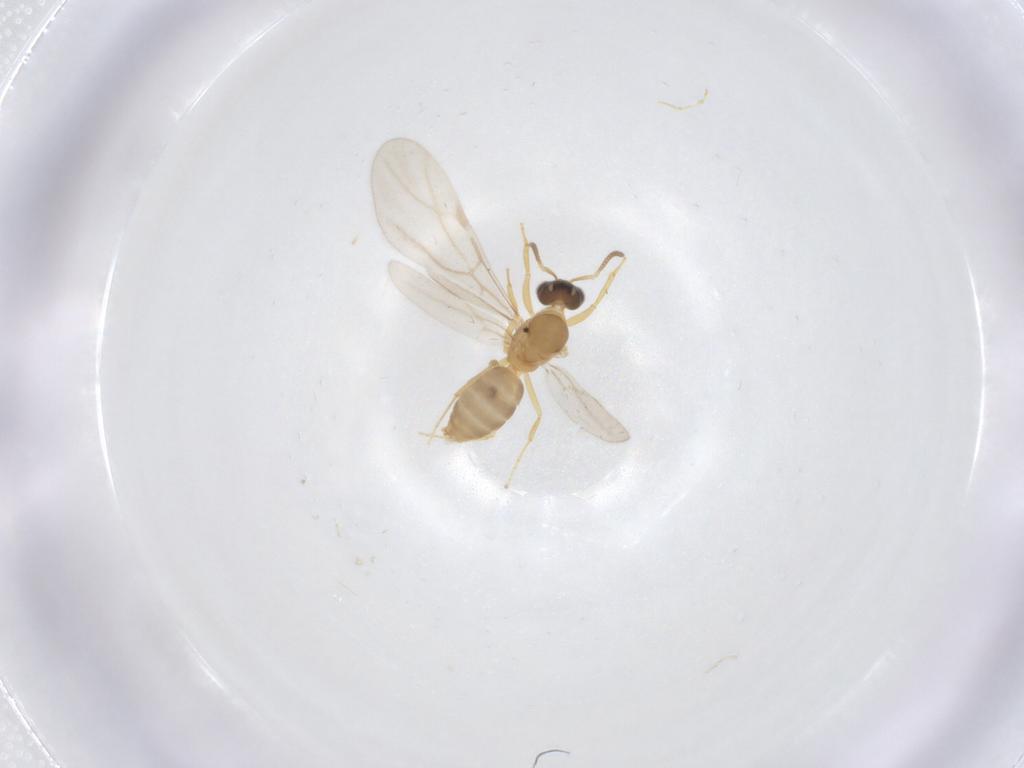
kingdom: Animalia
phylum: Arthropoda
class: Insecta
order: Hymenoptera
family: Formicidae
